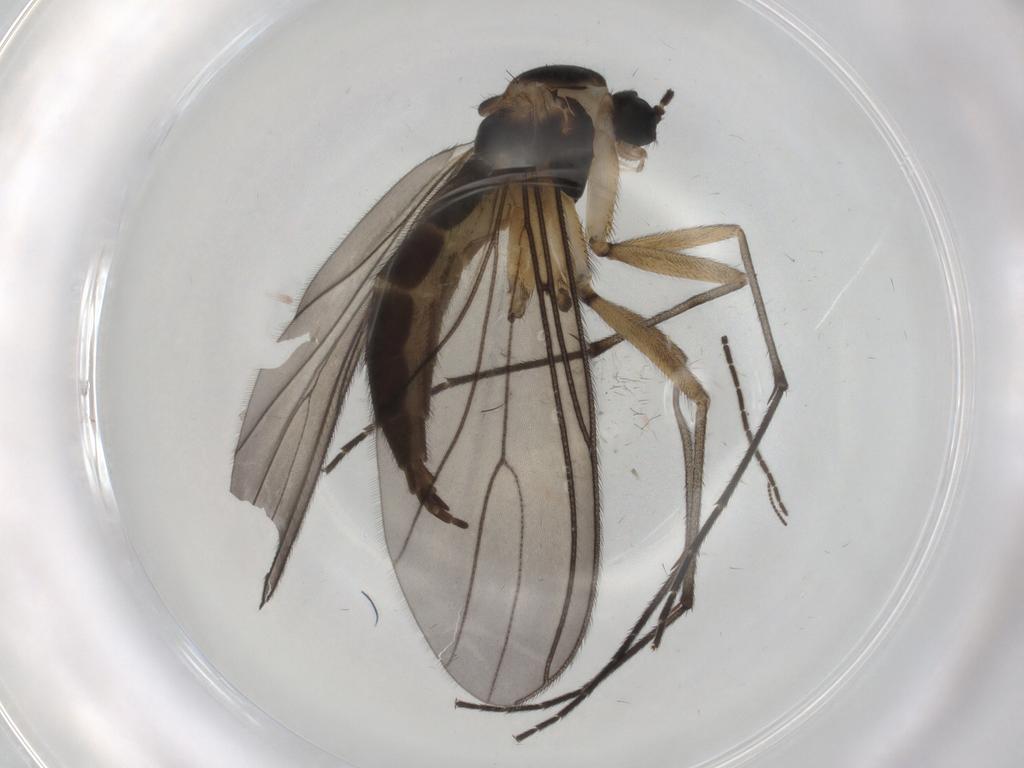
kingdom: Animalia
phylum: Arthropoda
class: Insecta
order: Diptera
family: Sciaridae
